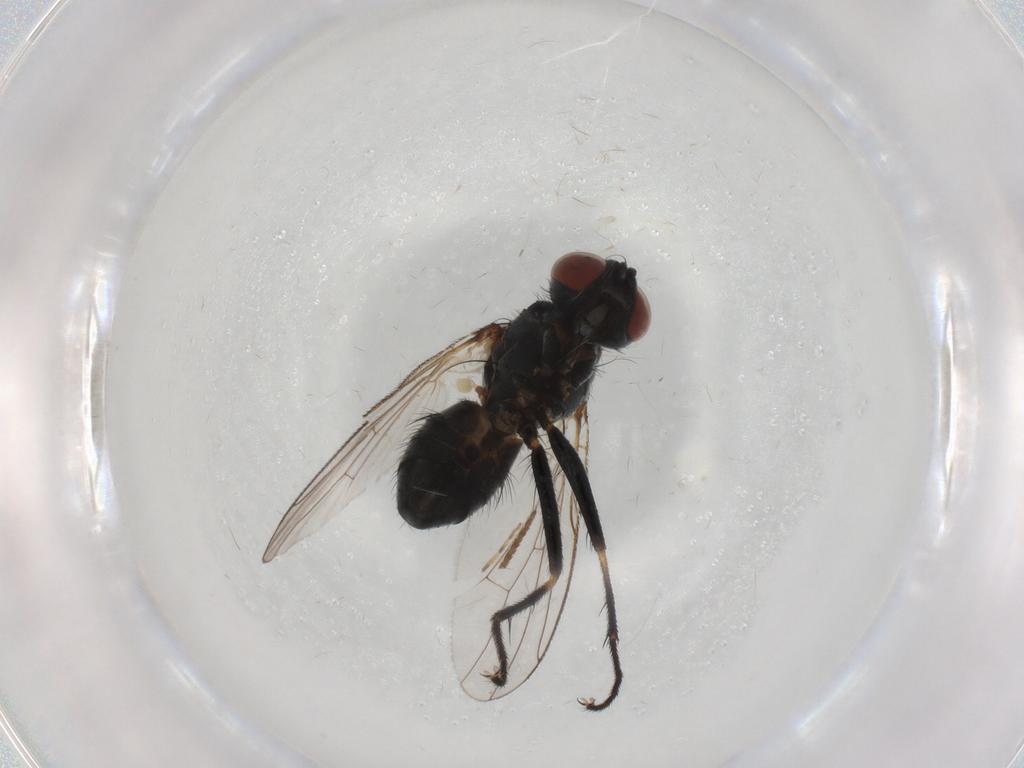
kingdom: Animalia
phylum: Arthropoda
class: Insecta
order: Diptera
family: Muscidae
